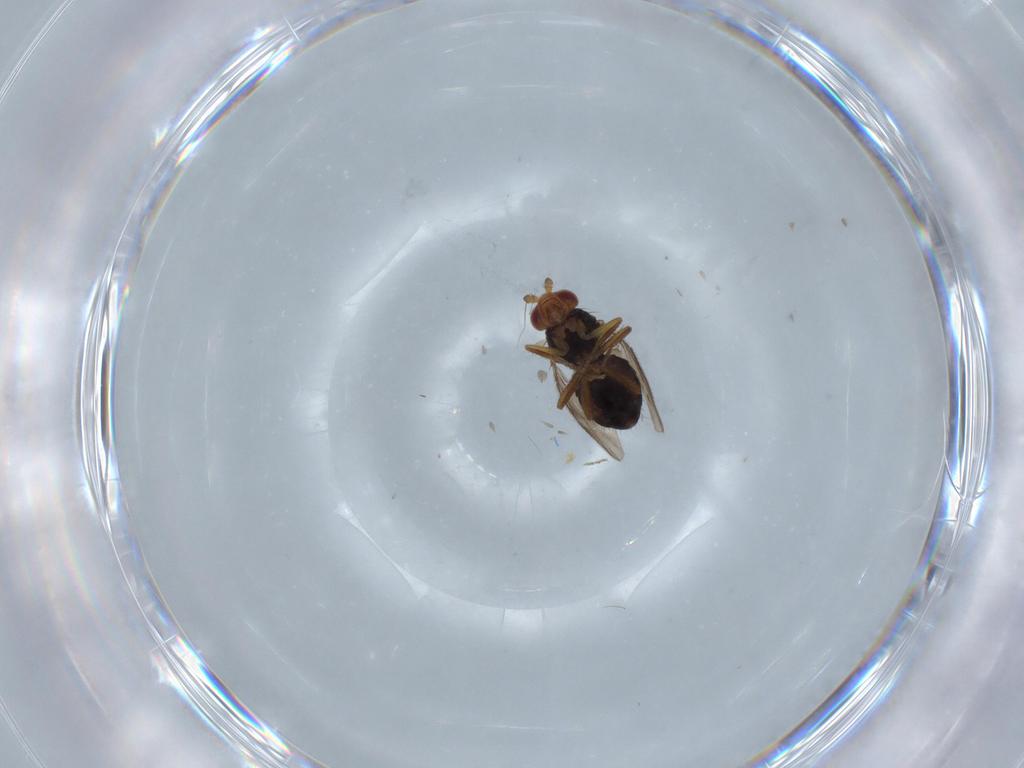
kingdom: Animalia
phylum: Arthropoda
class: Insecta
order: Diptera
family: Sphaeroceridae
